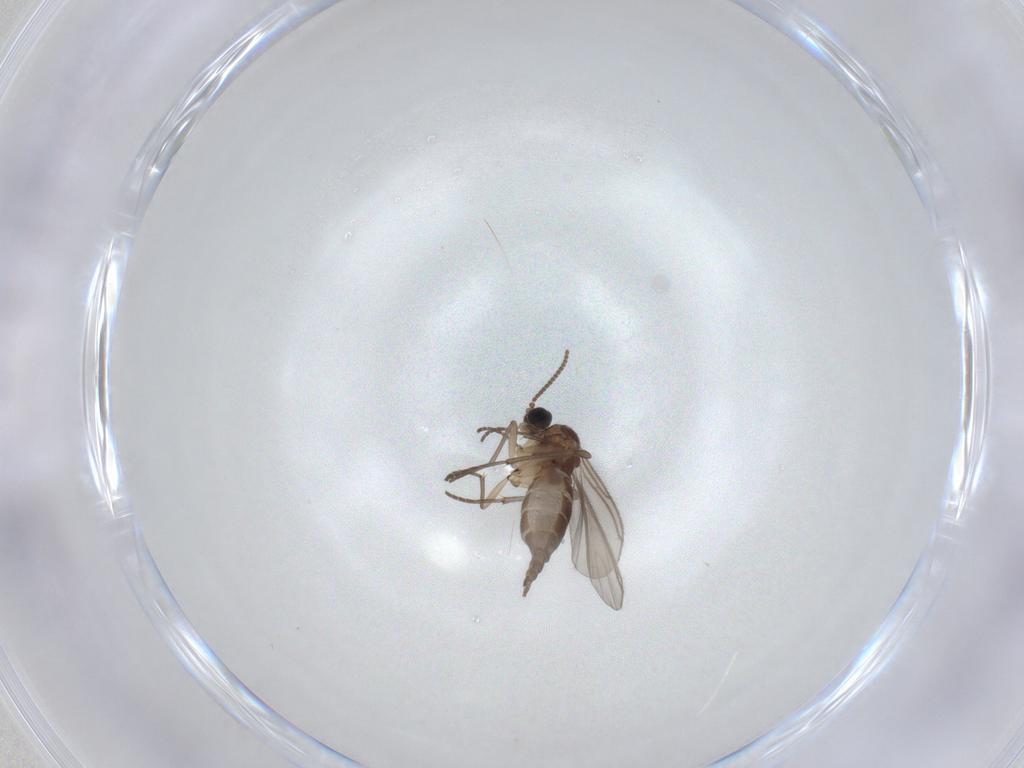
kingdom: Animalia
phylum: Arthropoda
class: Insecta
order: Diptera
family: Sciaridae
